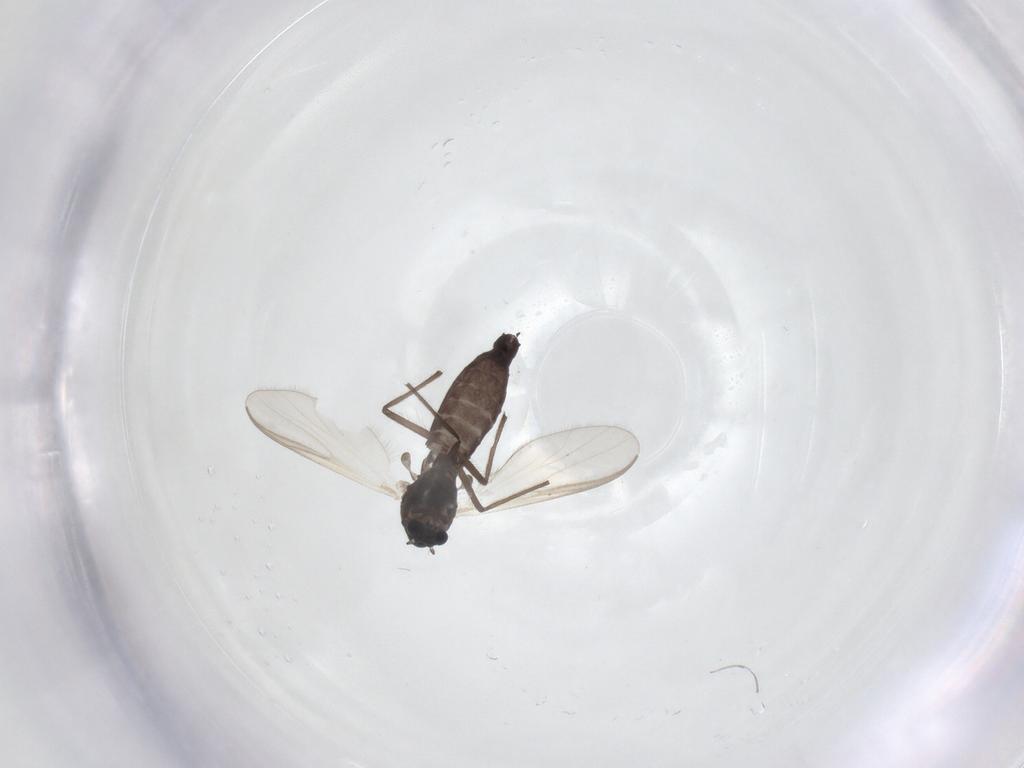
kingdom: Animalia
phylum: Arthropoda
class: Insecta
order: Diptera
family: Chironomidae
